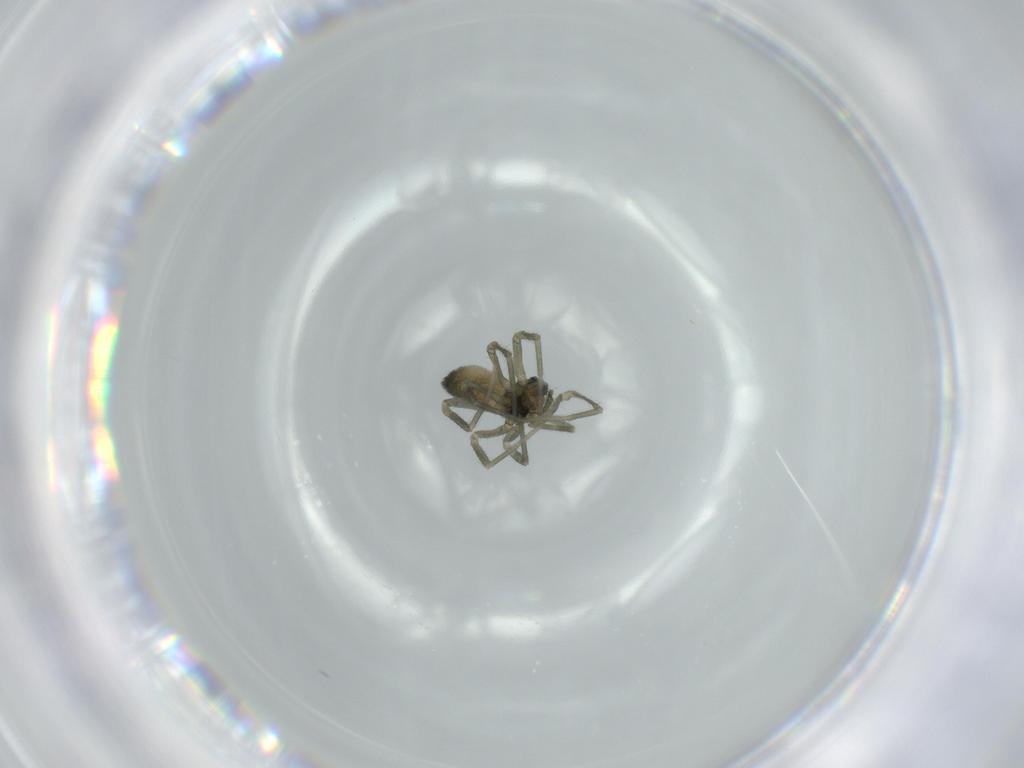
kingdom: Animalia
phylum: Arthropoda
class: Arachnida
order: Araneae
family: Linyphiidae
